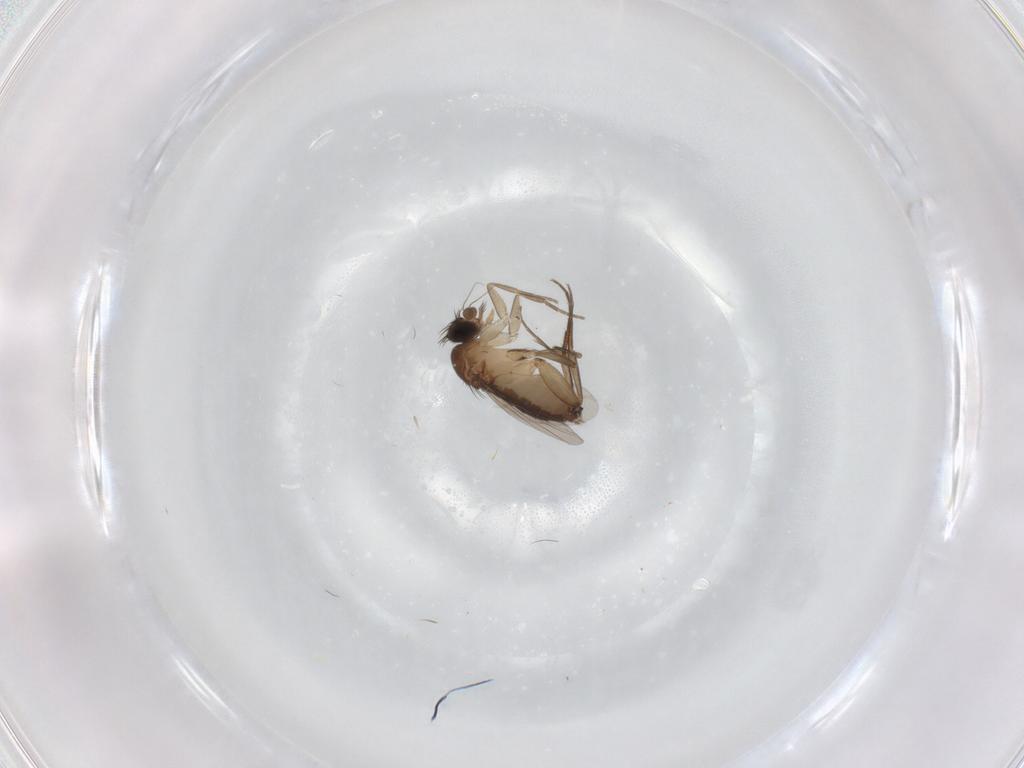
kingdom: Animalia
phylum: Arthropoda
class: Insecta
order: Diptera
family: Phoridae
